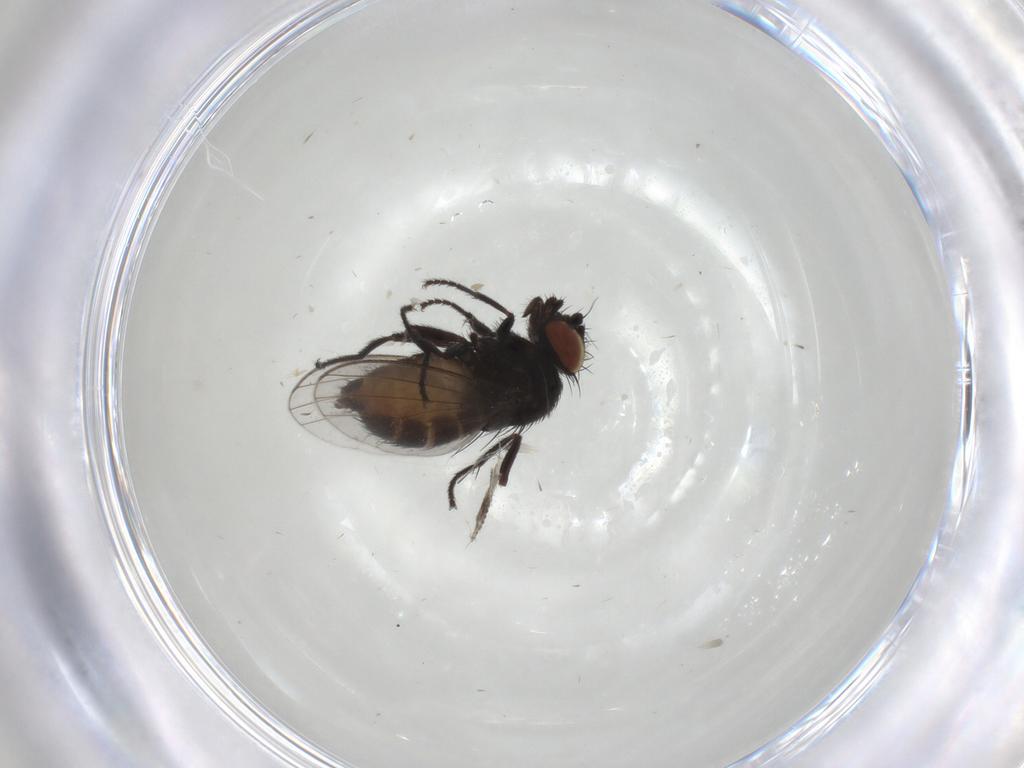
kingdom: Animalia
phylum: Arthropoda
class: Insecta
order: Diptera
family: Milichiidae
